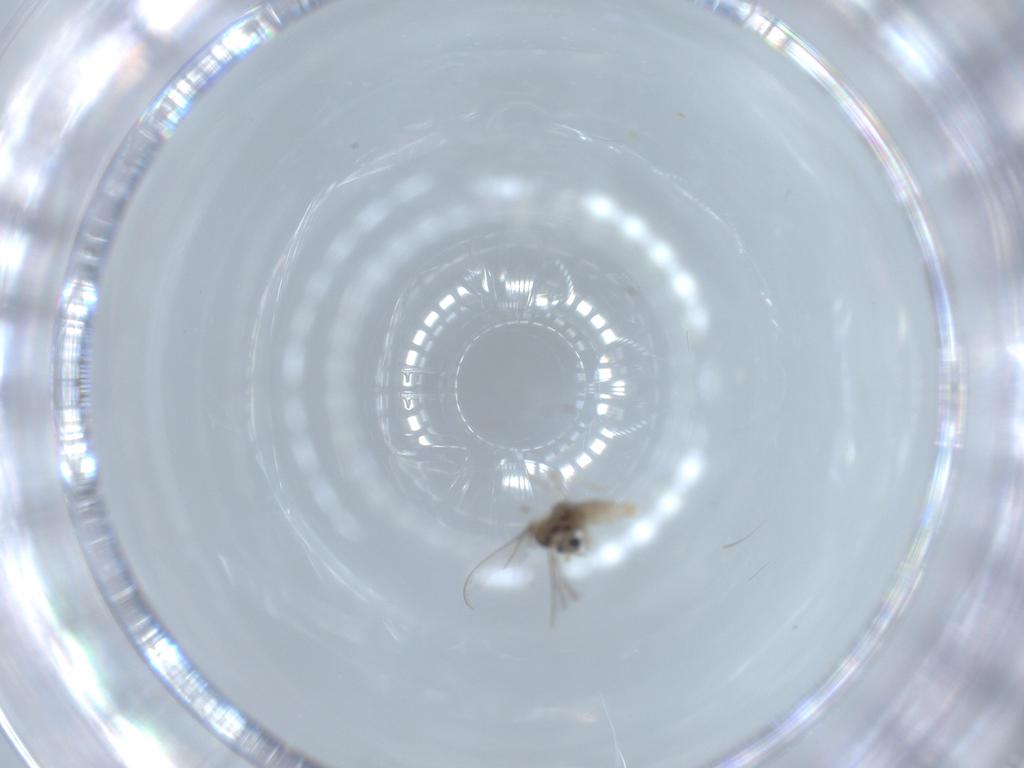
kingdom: Animalia
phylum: Arthropoda
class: Insecta
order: Diptera
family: Cecidomyiidae
